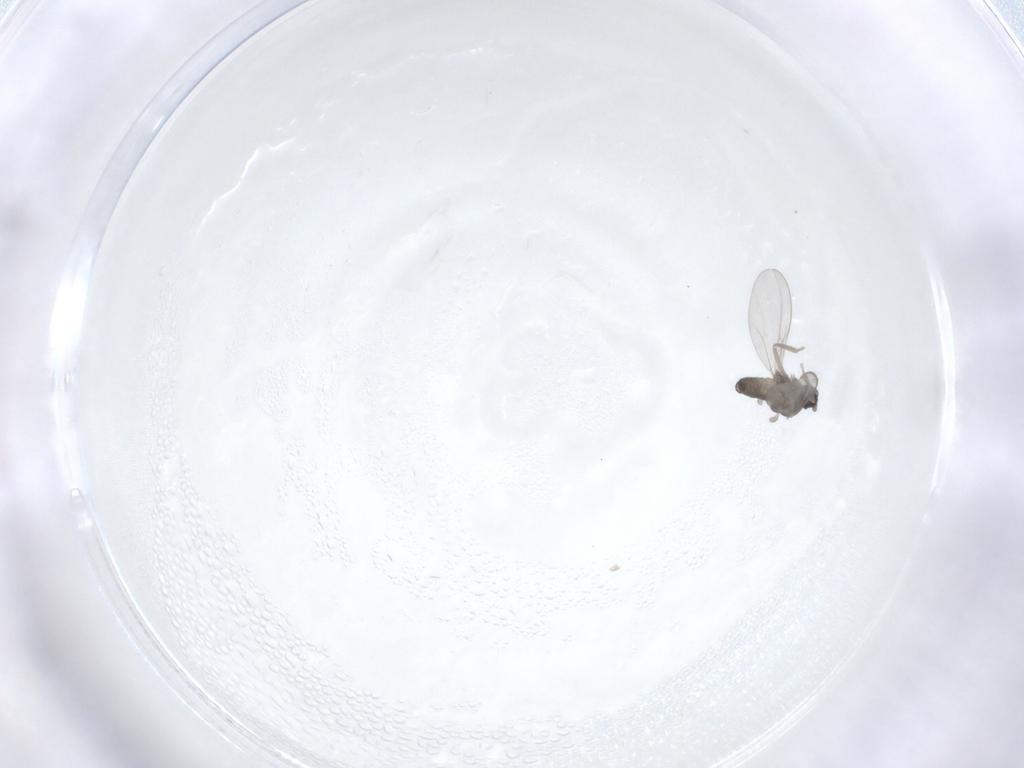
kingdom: Animalia
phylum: Arthropoda
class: Insecta
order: Diptera
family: Cecidomyiidae
